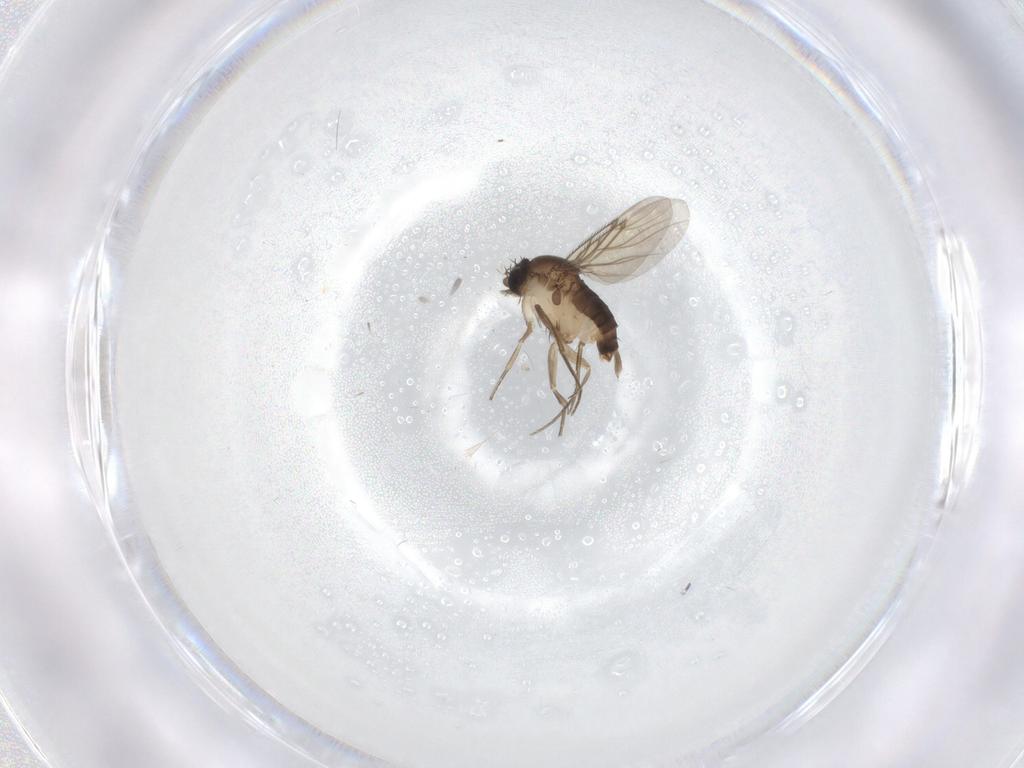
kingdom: Animalia
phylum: Arthropoda
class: Insecta
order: Diptera
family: Phoridae
